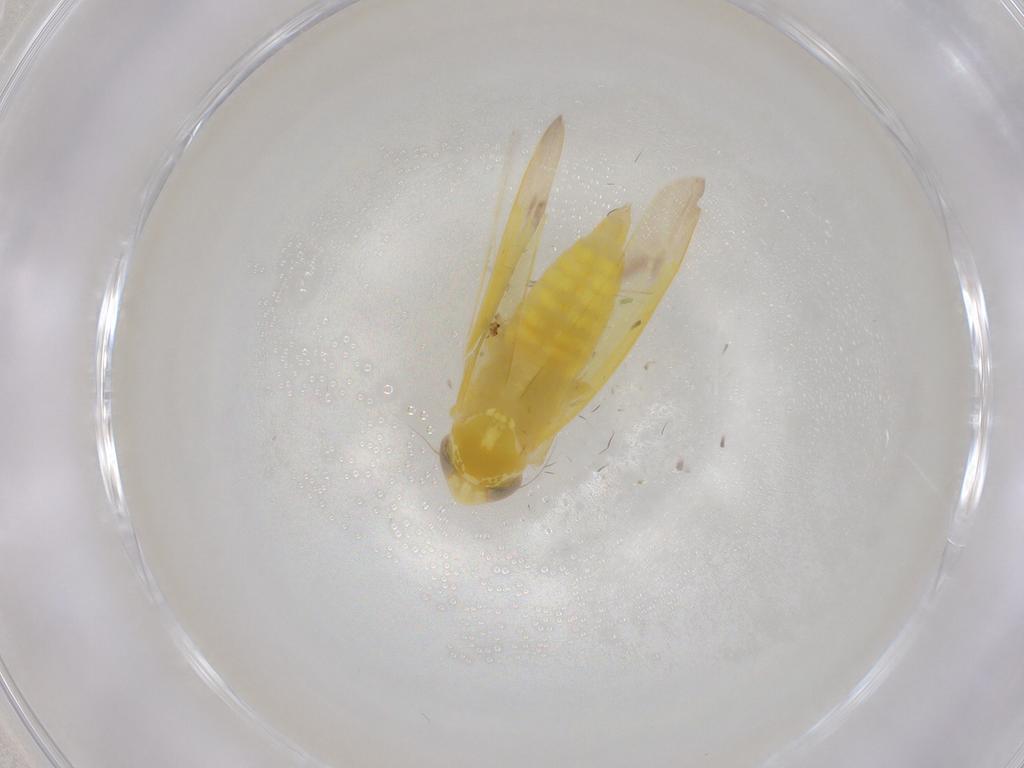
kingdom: Animalia
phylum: Arthropoda
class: Insecta
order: Hemiptera
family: Cicadellidae
